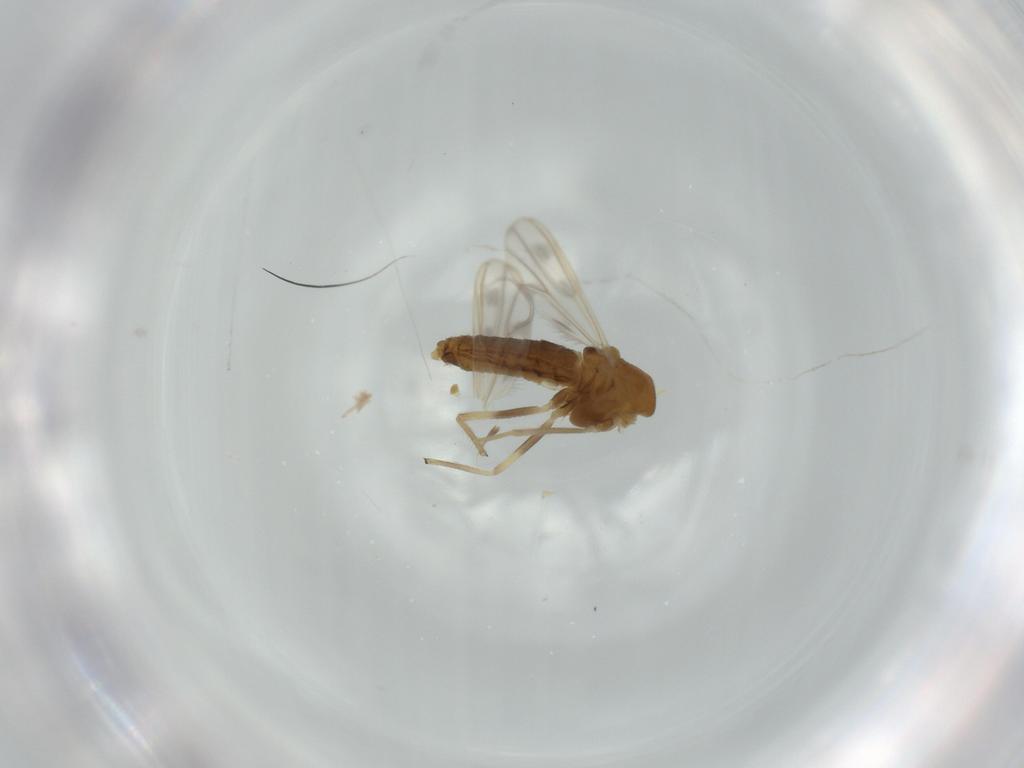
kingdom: Animalia
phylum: Arthropoda
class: Insecta
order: Diptera
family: Chironomidae
